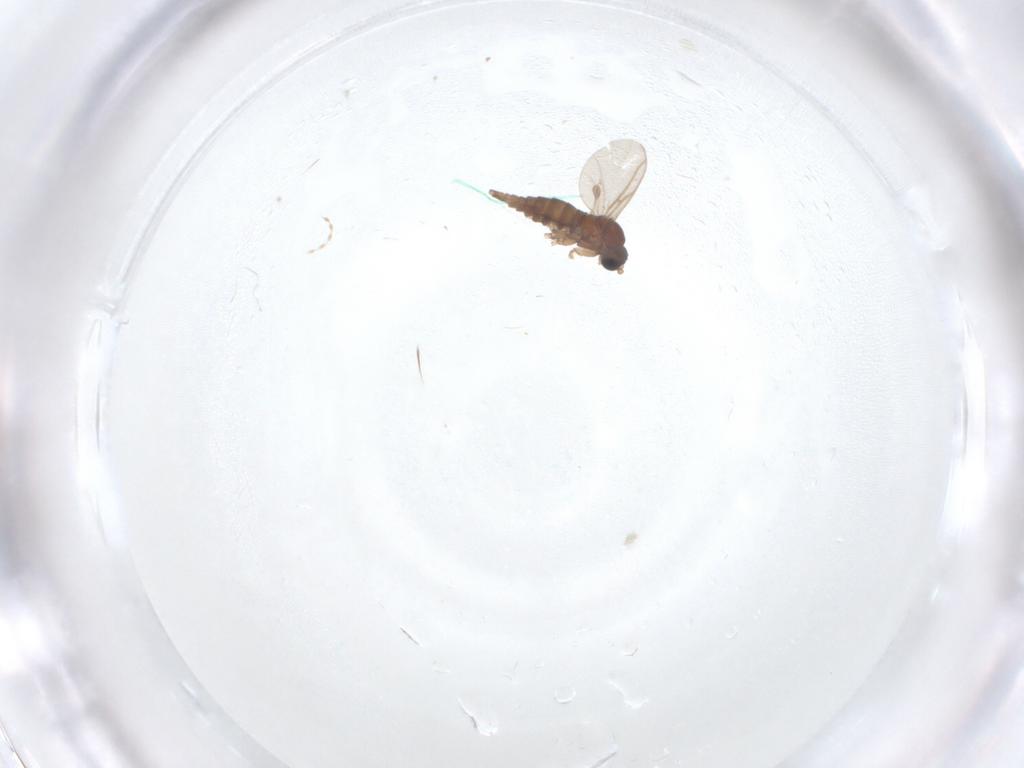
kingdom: Animalia
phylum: Arthropoda
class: Insecta
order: Diptera
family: Sciaridae
